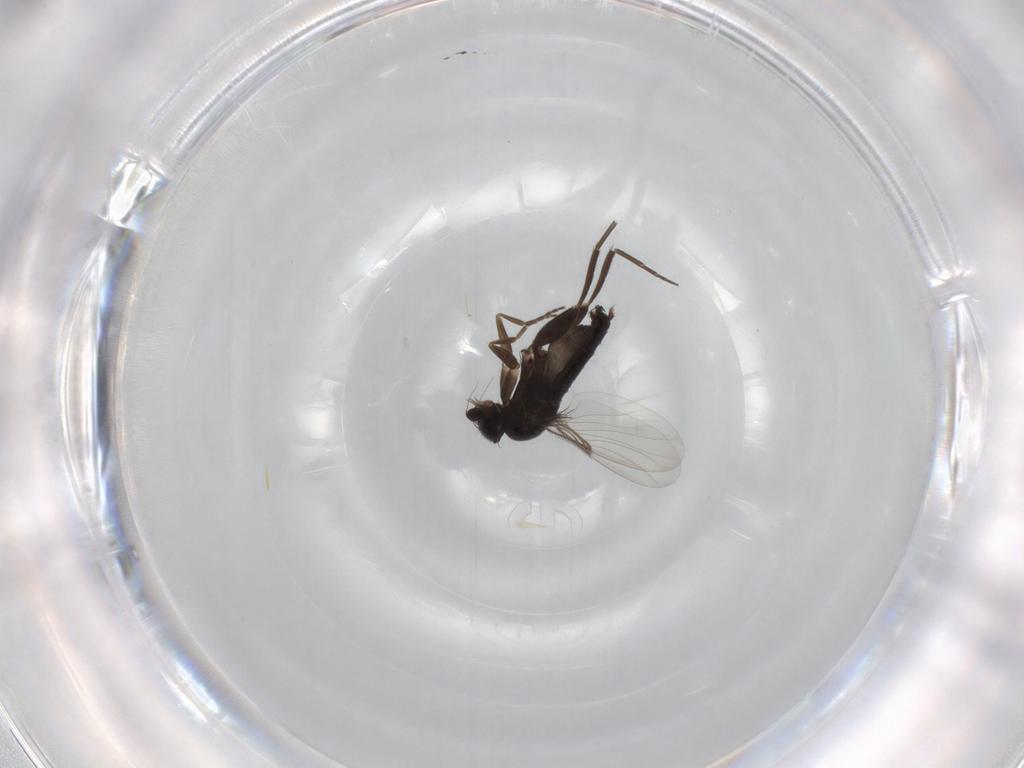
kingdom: Animalia
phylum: Arthropoda
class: Insecta
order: Diptera
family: Phoridae
